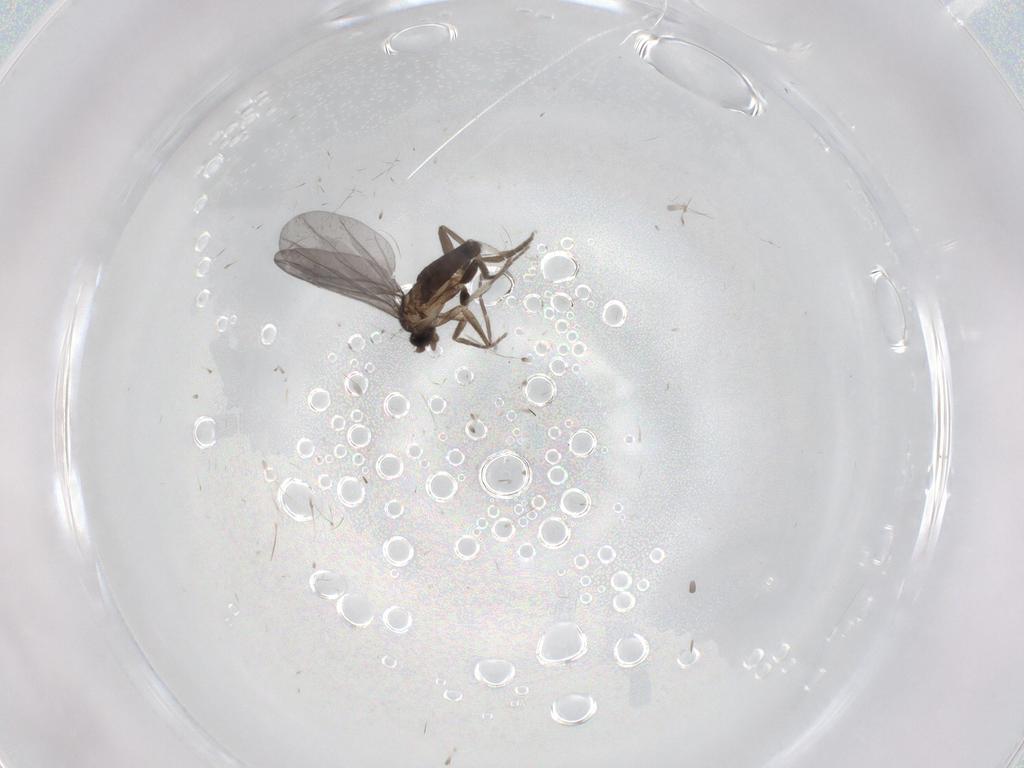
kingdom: Animalia
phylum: Arthropoda
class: Insecta
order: Diptera
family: Phoridae
